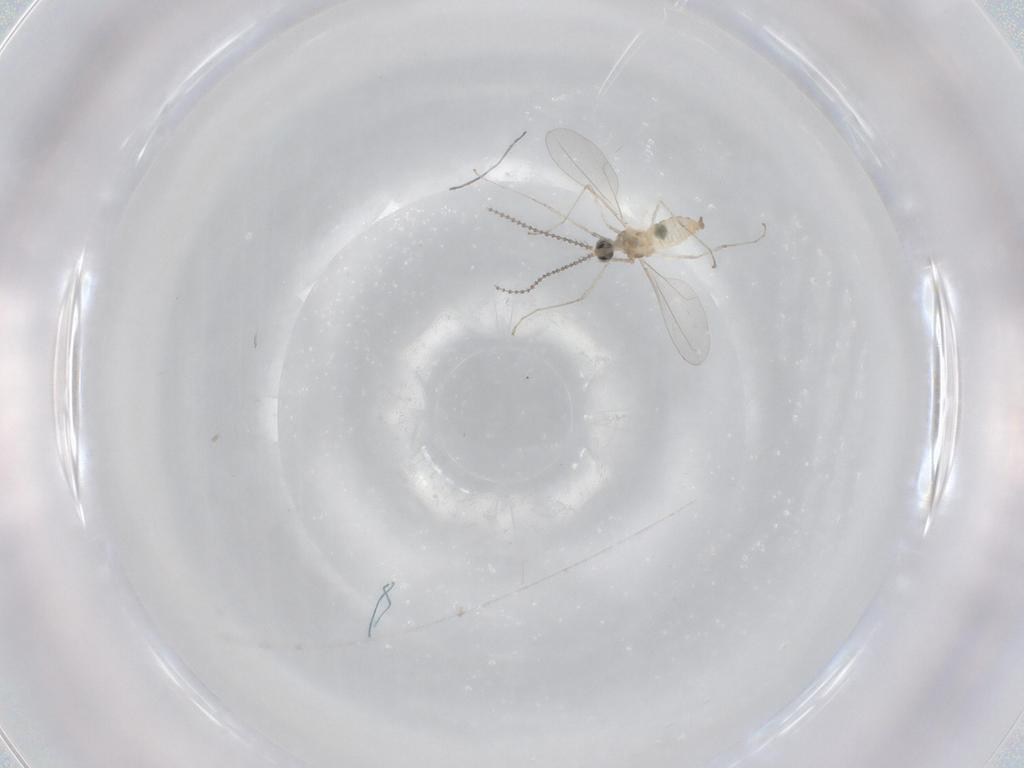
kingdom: Animalia
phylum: Arthropoda
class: Insecta
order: Diptera
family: Cecidomyiidae
